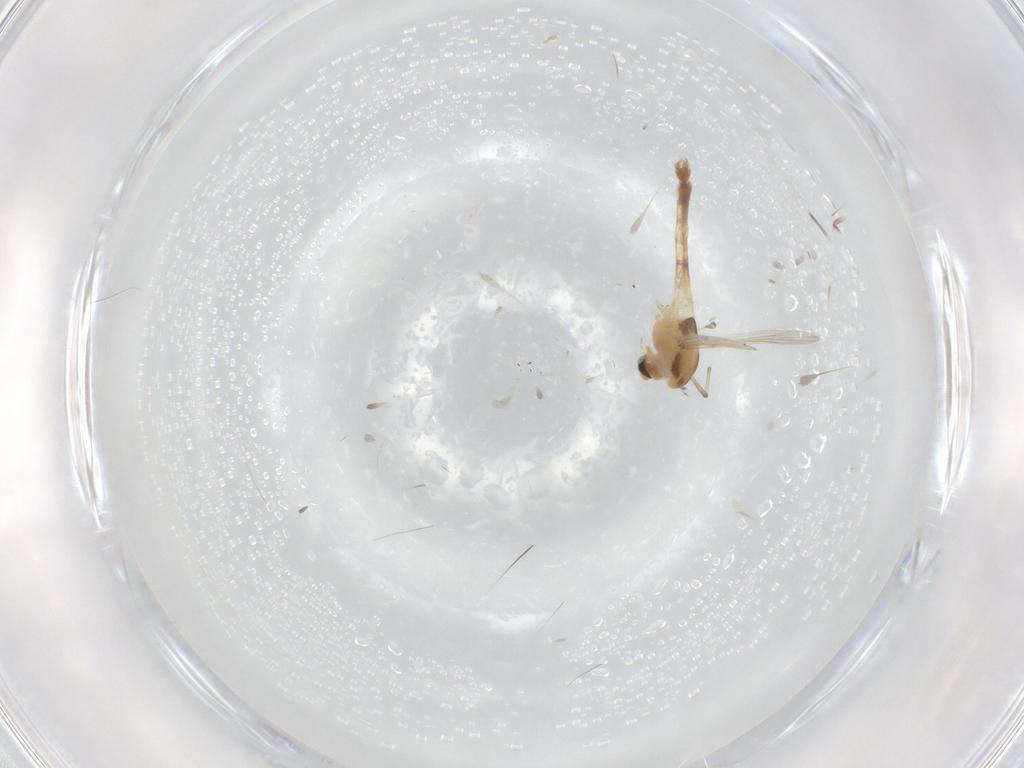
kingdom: Animalia
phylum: Arthropoda
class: Insecta
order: Diptera
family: Chironomidae
